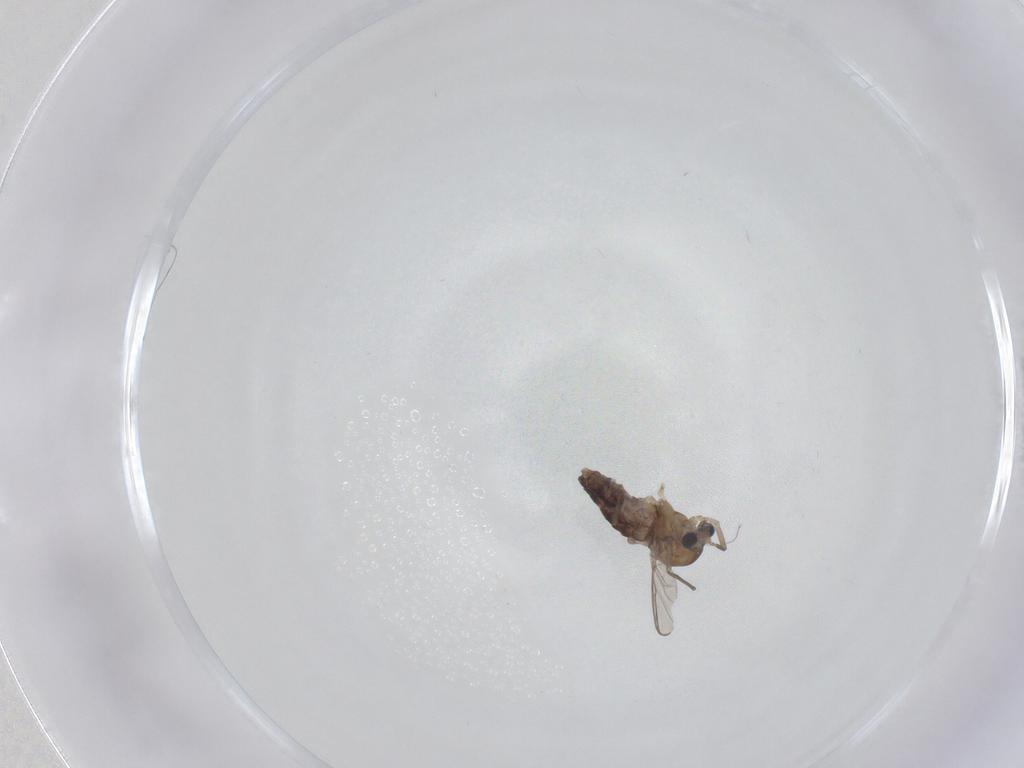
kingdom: Animalia
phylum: Arthropoda
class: Insecta
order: Diptera
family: Chironomidae
